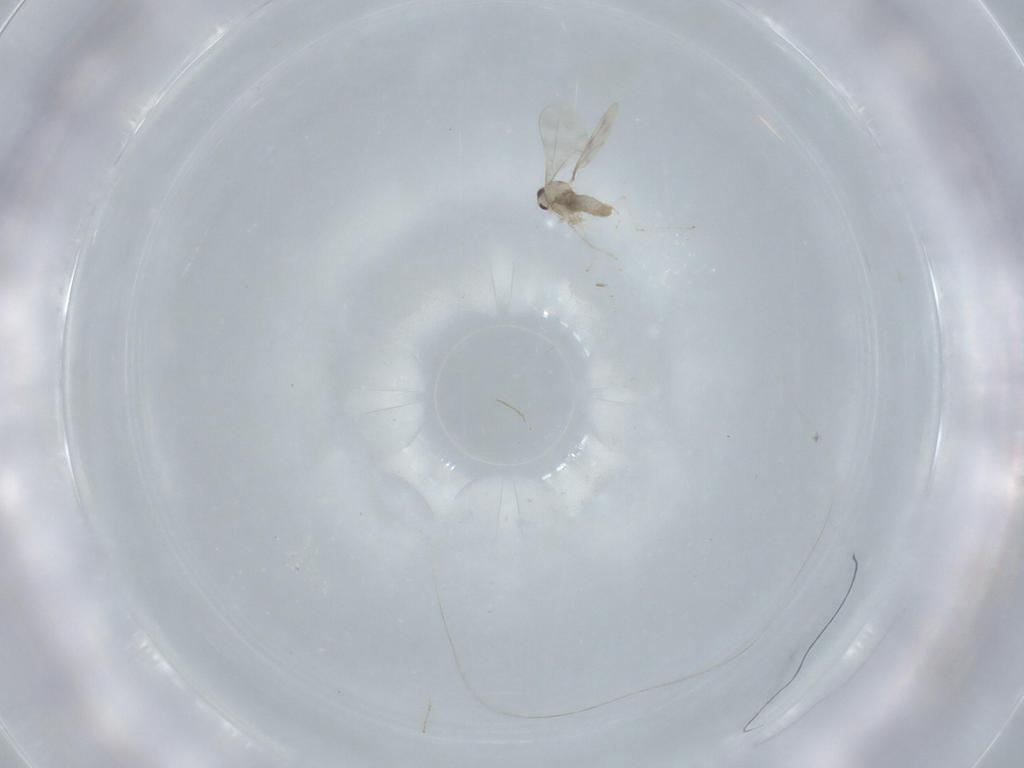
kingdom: Animalia
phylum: Arthropoda
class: Insecta
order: Diptera
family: Cecidomyiidae
